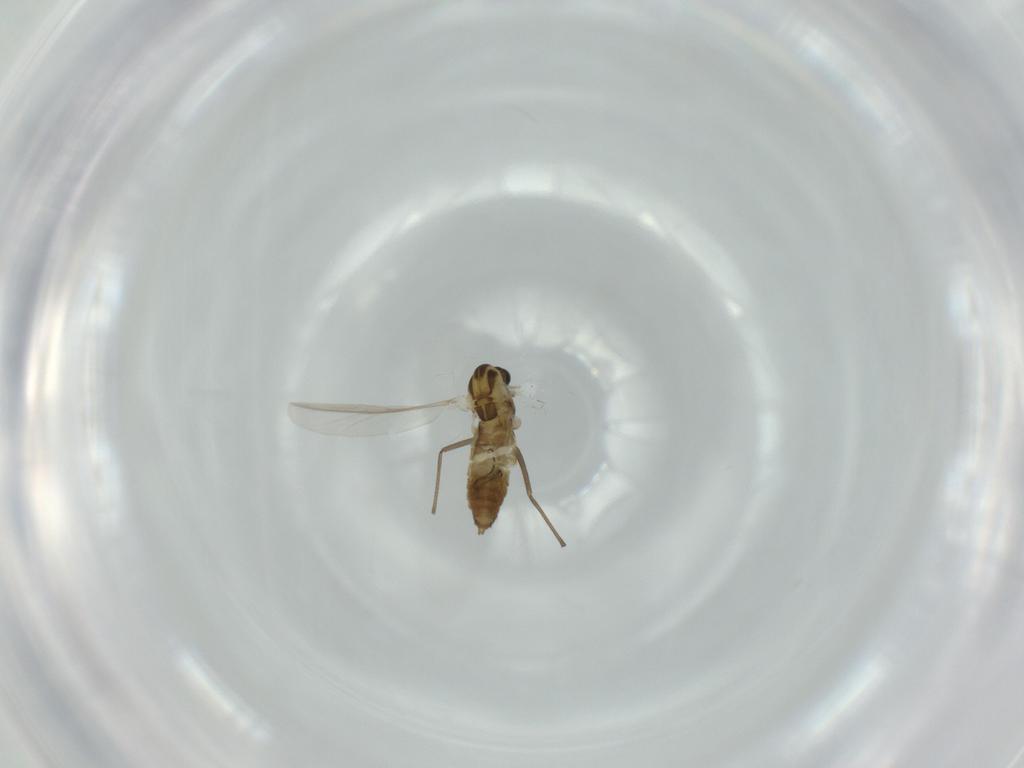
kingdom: Animalia
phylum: Arthropoda
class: Insecta
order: Diptera
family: Chironomidae
